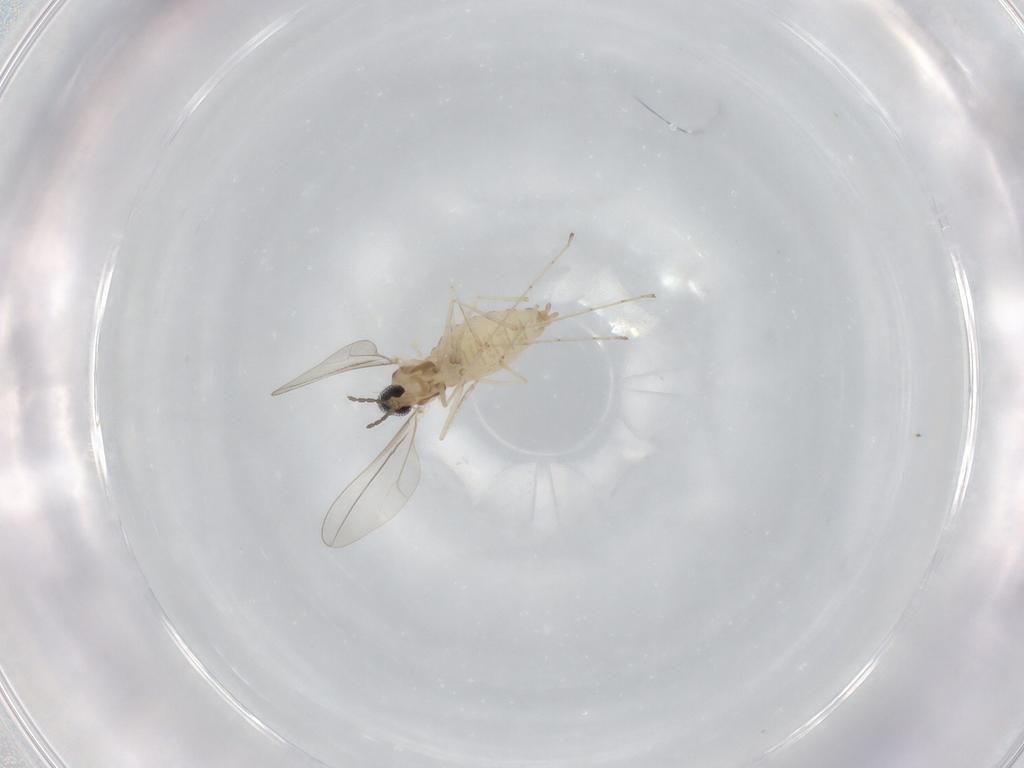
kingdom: Animalia
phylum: Arthropoda
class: Insecta
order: Diptera
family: Cecidomyiidae
